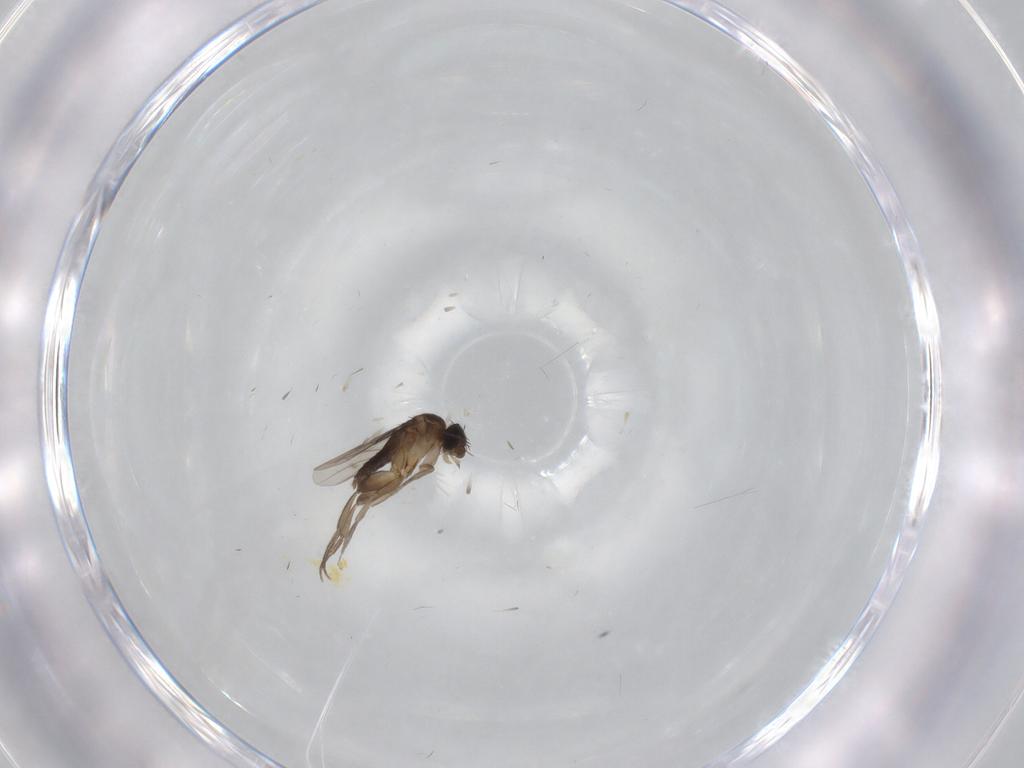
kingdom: Animalia
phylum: Arthropoda
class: Insecta
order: Diptera
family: Phoridae
